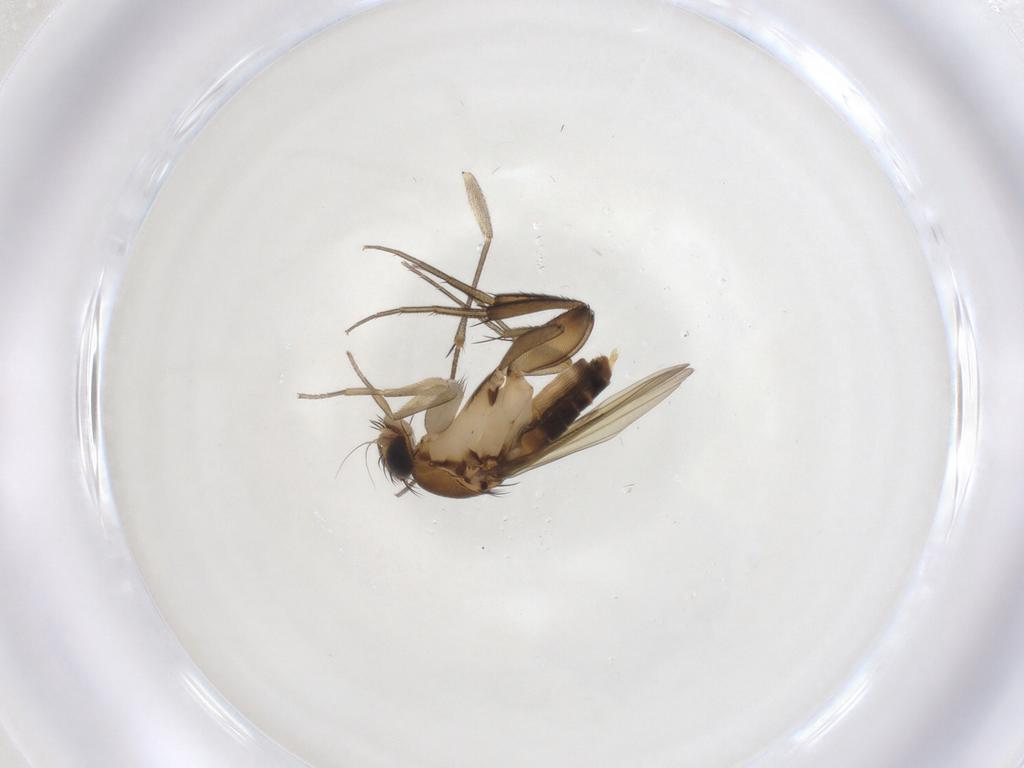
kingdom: Animalia
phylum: Arthropoda
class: Insecta
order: Diptera
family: Phoridae
